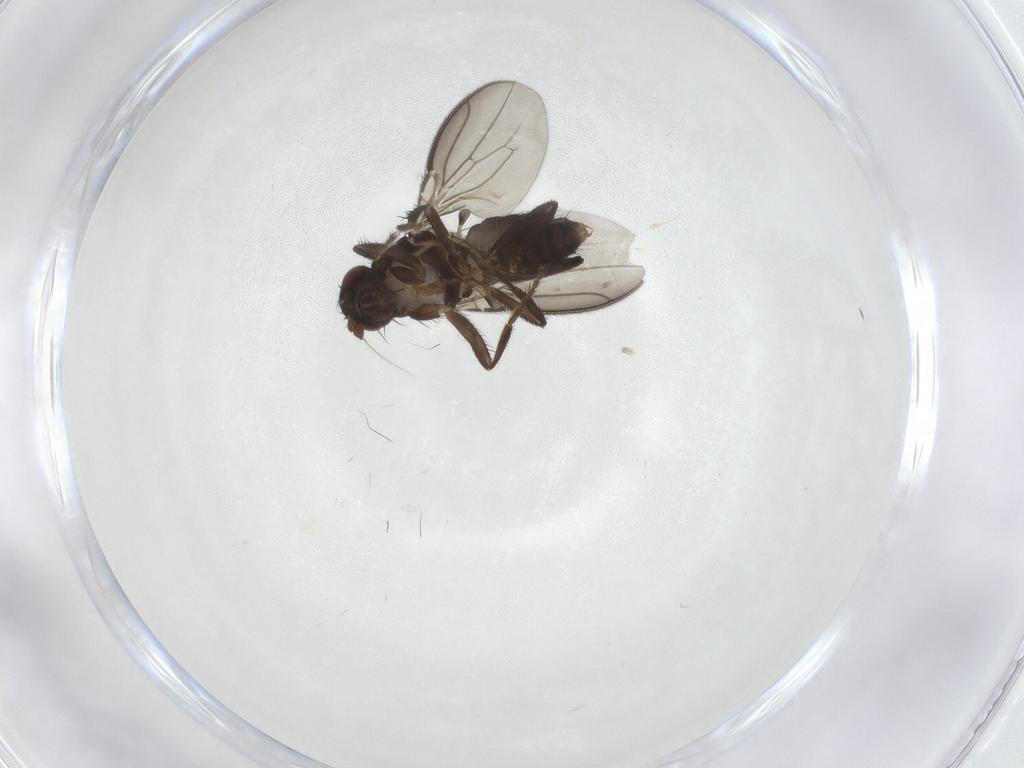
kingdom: Animalia
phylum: Arthropoda
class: Insecta
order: Diptera
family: Sphaeroceridae
